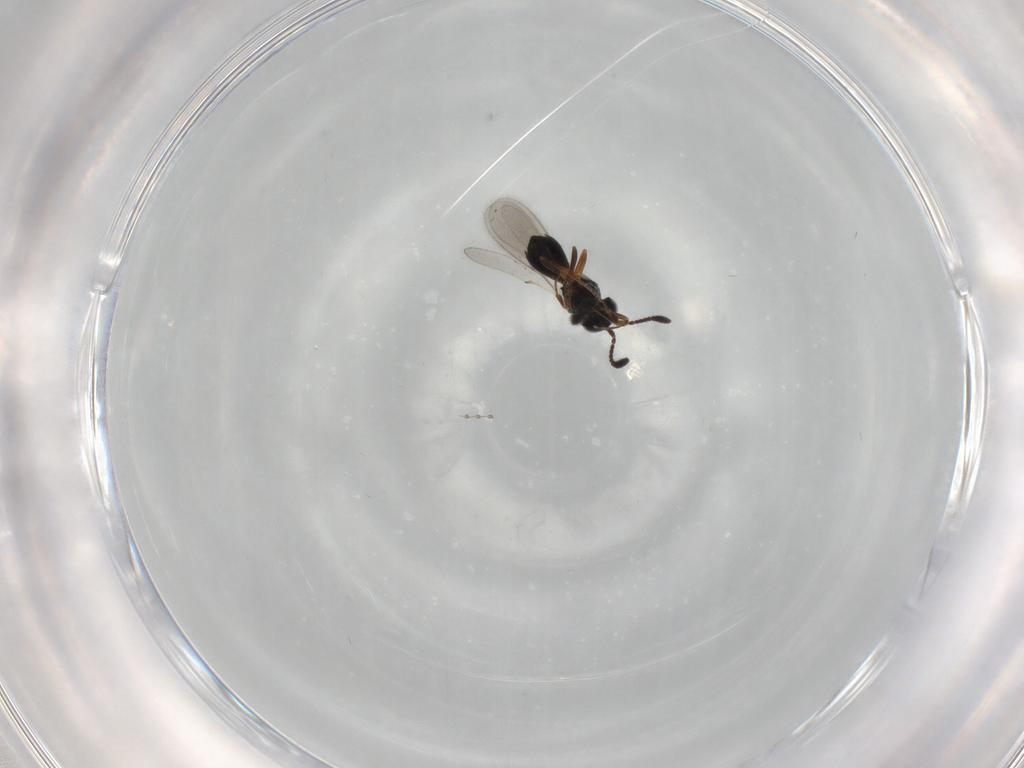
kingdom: Animalia
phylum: Arthropoda
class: Insecta
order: Hymenoptera
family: Scelionidae
